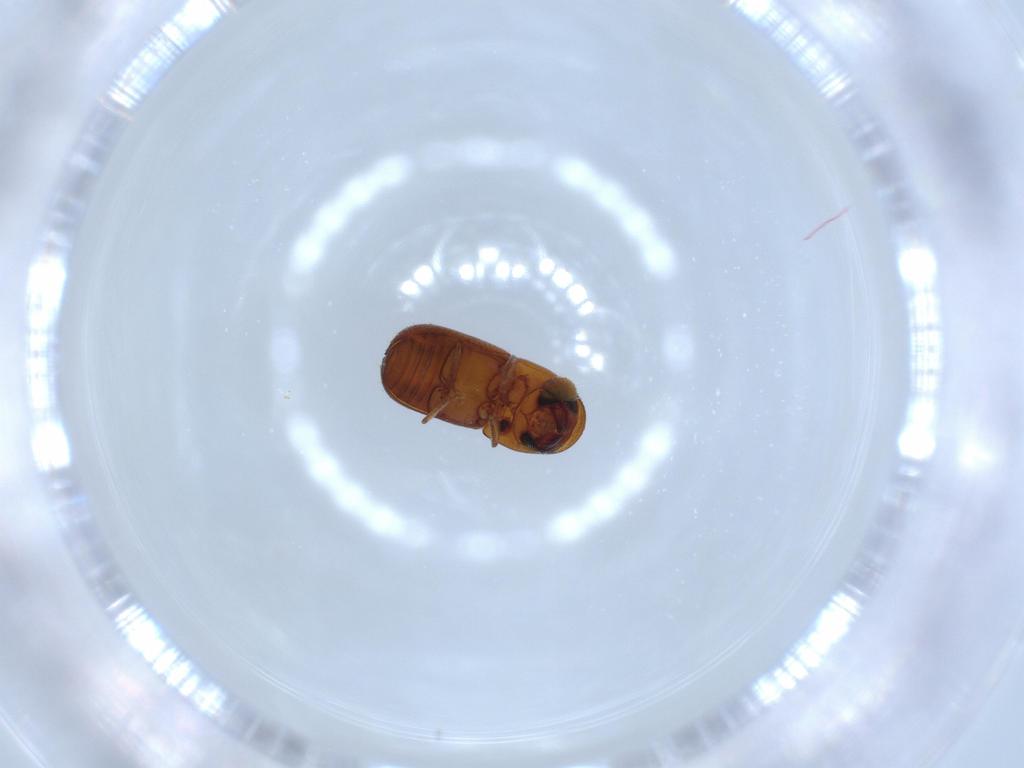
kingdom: Animalia
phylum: Arthropoda
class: Insecta
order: Coleoptera
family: Curculionidae
